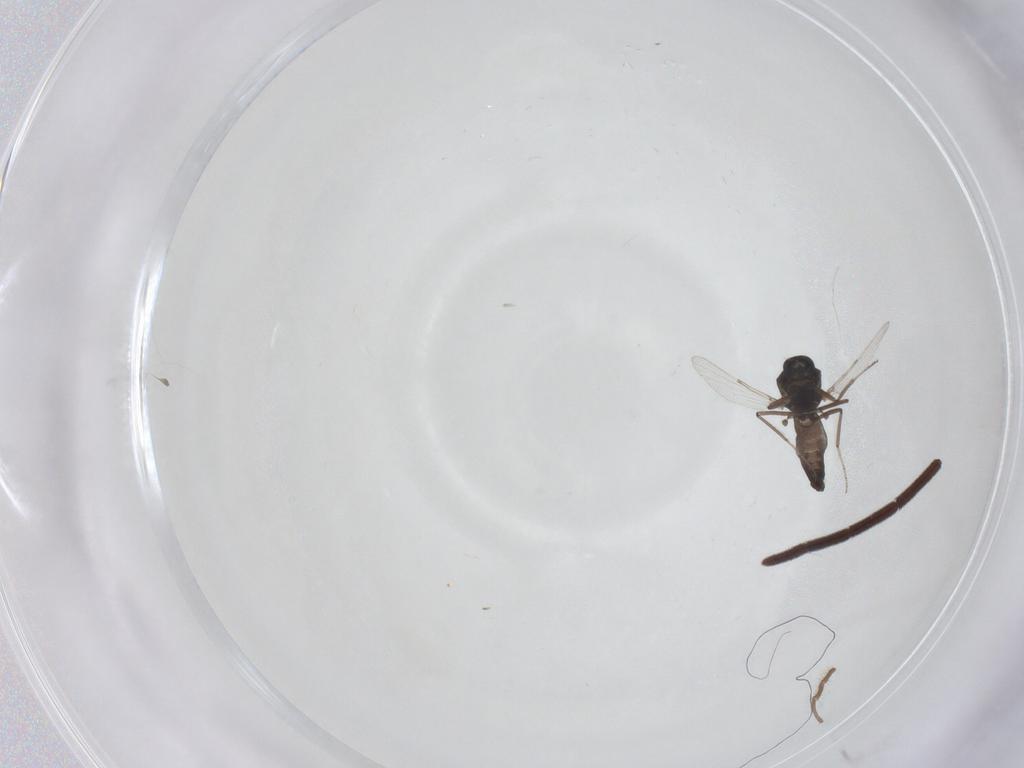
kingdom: Animalia
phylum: Arthropoda
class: Insecta
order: Diptera
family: Ceratopogonidae
